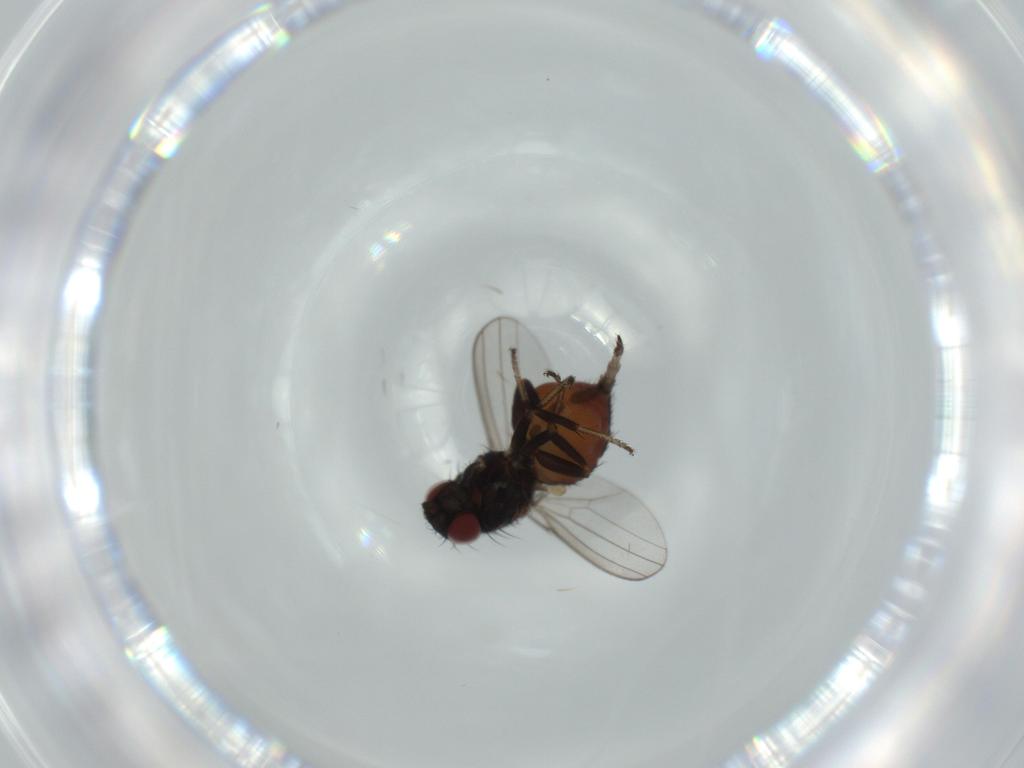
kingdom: Animalia
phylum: Arthropoda
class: Insecta
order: Diptera
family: Milichiidae
